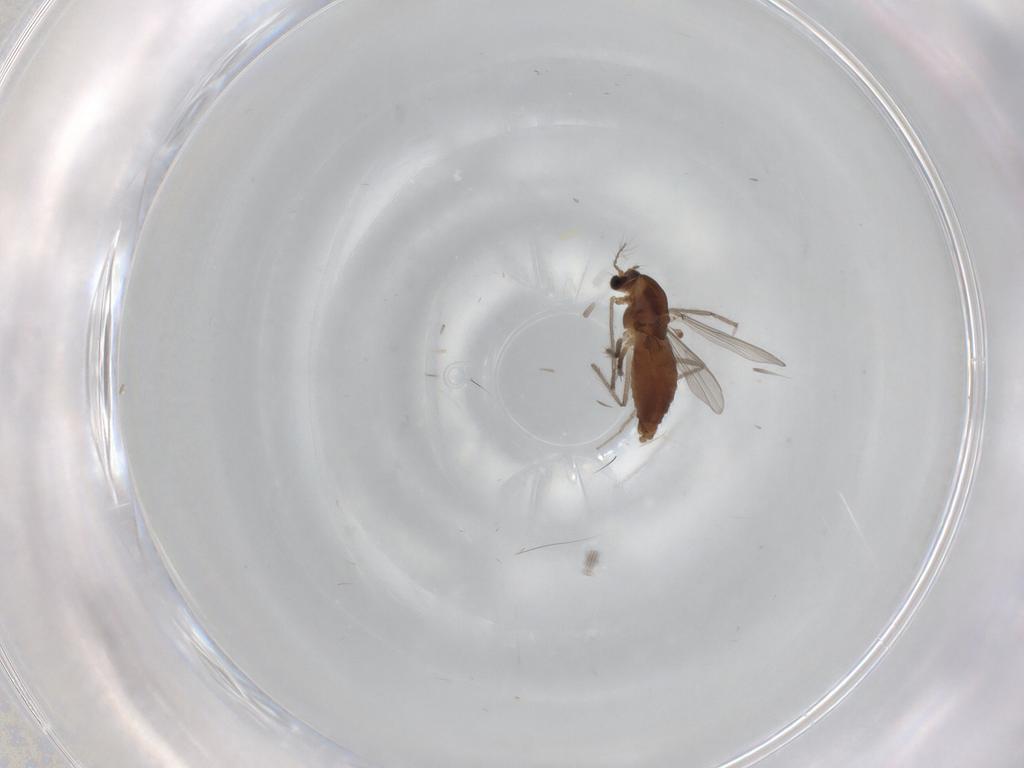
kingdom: Animalia
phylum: Arthropoda
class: Insecta
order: Diptera
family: Chironomidae
